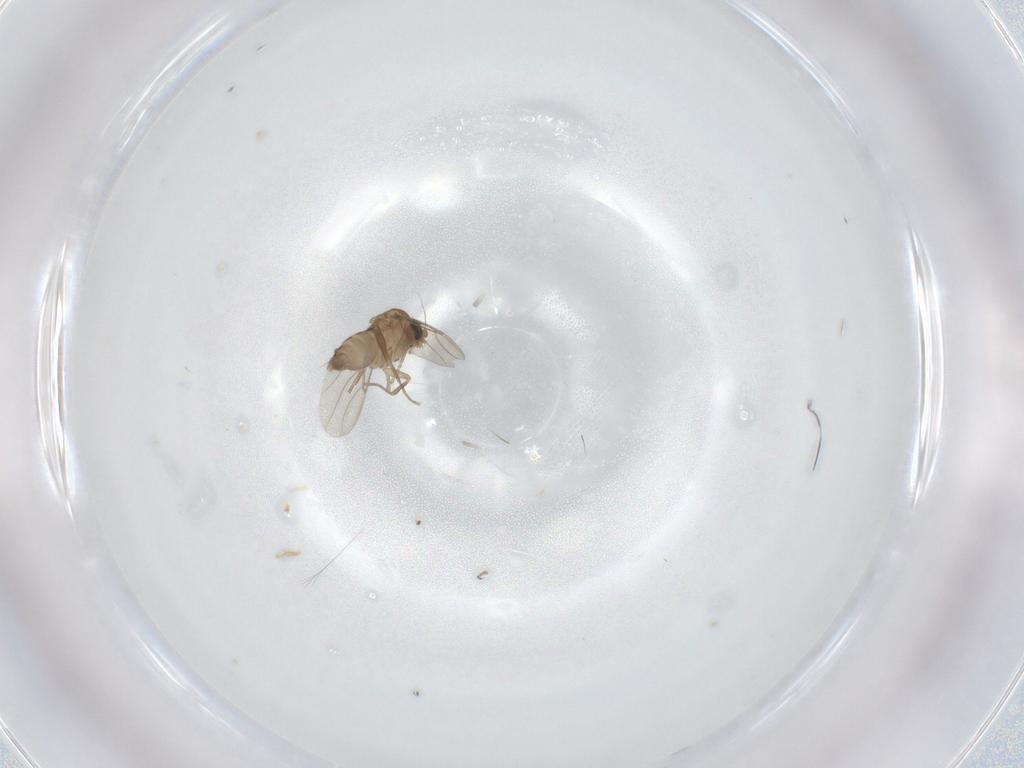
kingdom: Animalia
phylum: Arthropoda
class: Insecta
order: Diptera
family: Phoridae
